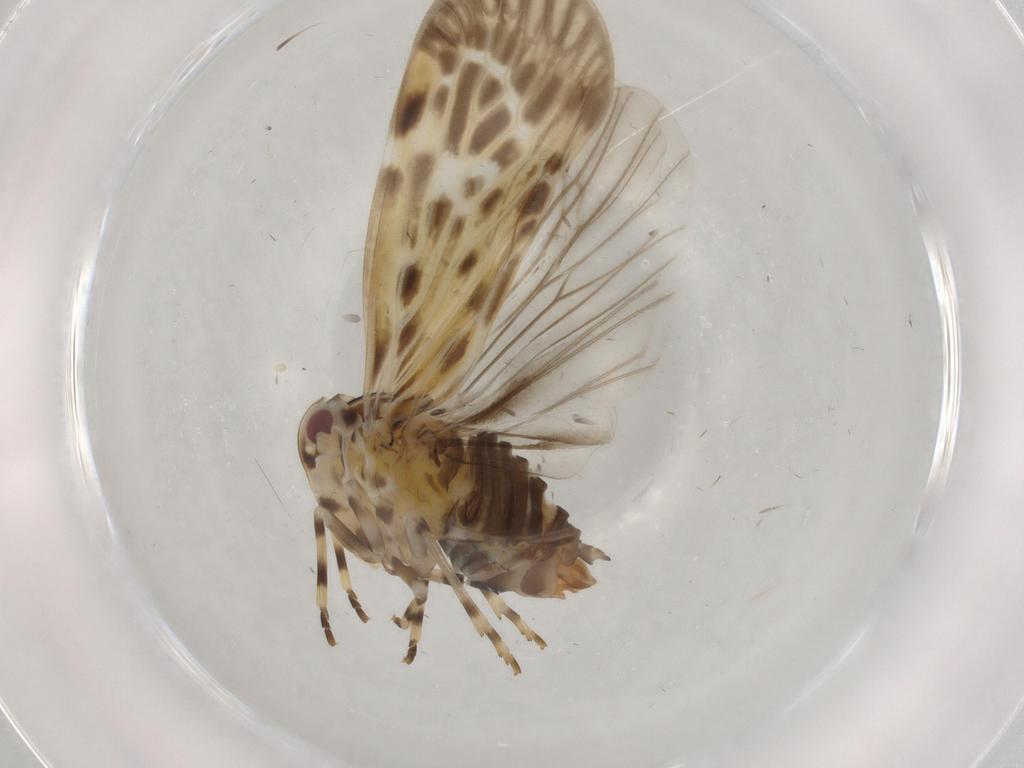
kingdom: Animalia
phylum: Arthropoda
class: Insecta
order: Hemiptera
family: Derbidae
